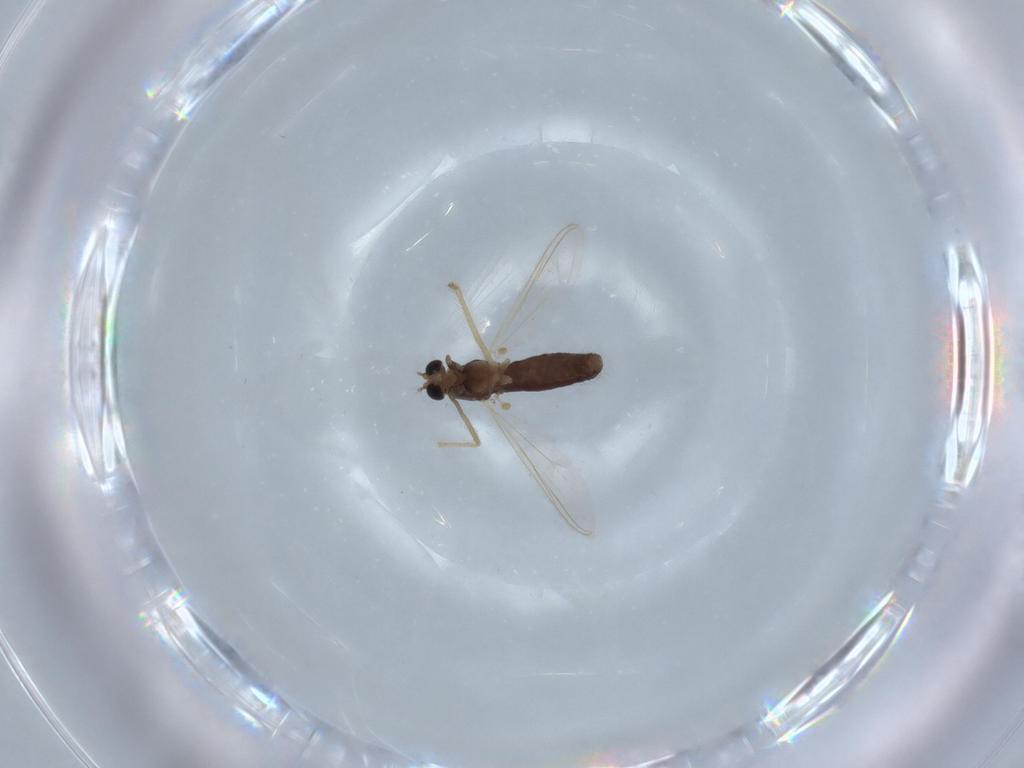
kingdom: Animalia
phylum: Arthropoda
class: Insecta
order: Diptera
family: Chironomidae
